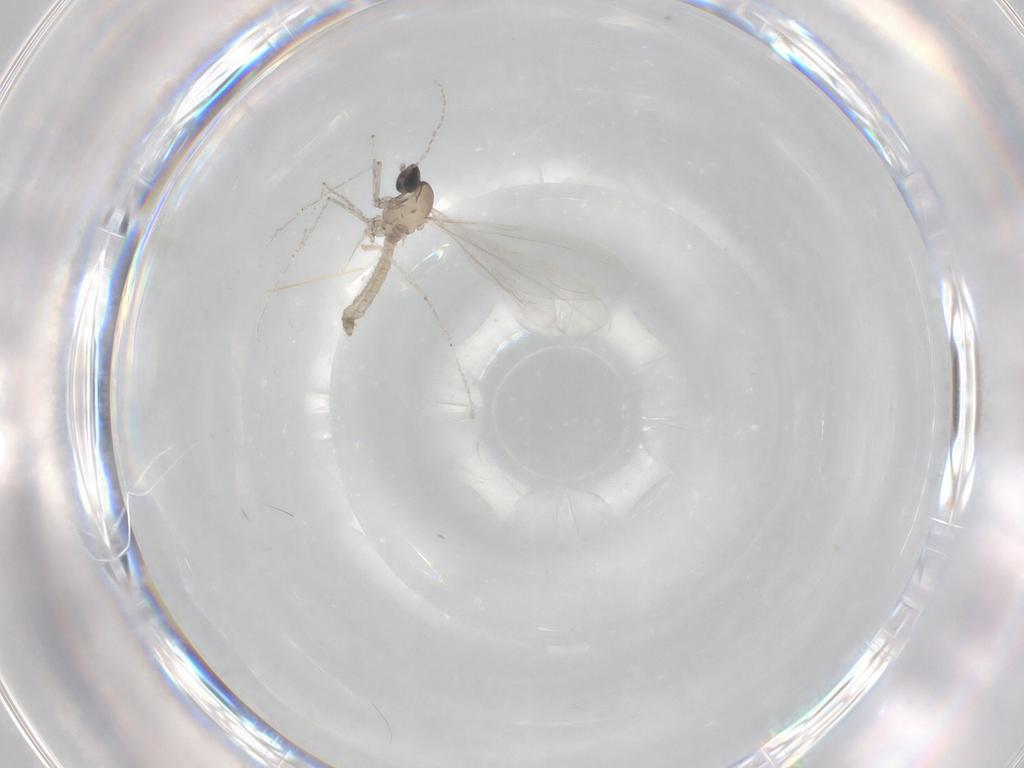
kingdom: Animalia
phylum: Arthropoda
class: Insecta
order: Diptera
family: Cecidomyiidae
